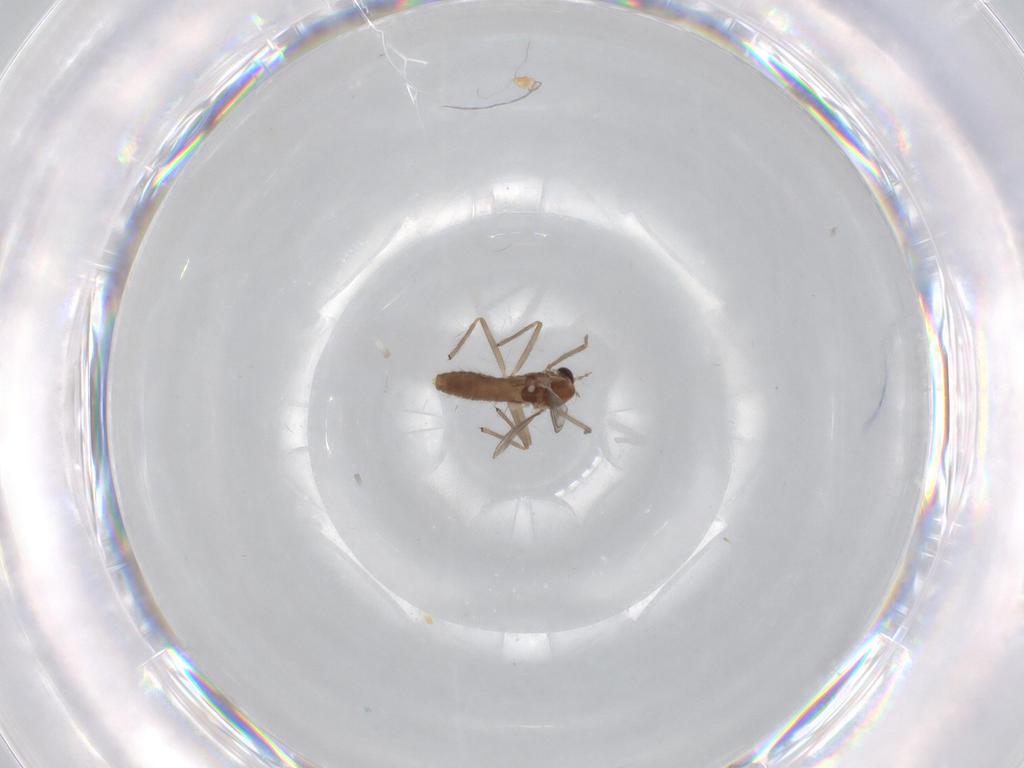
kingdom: Animalia
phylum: Arthropoda
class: Insecta
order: Diptera
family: Chironomidae
